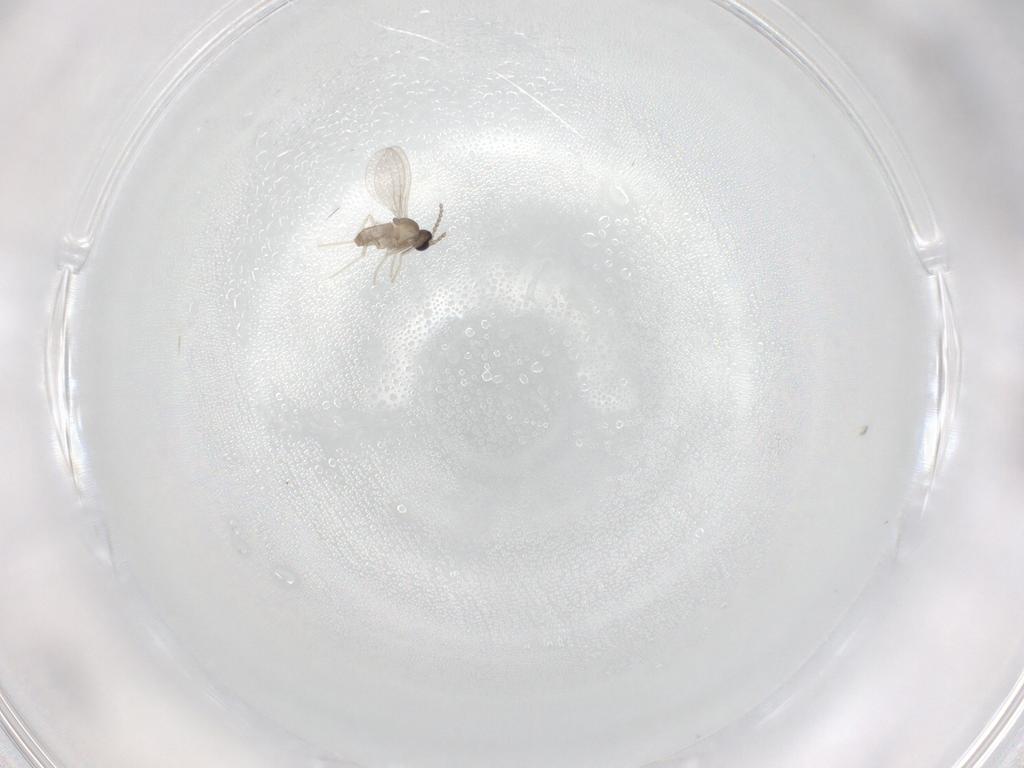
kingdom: Animalia
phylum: Arthropoda
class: Insecta
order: Diptera
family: Cecidomyiidae
